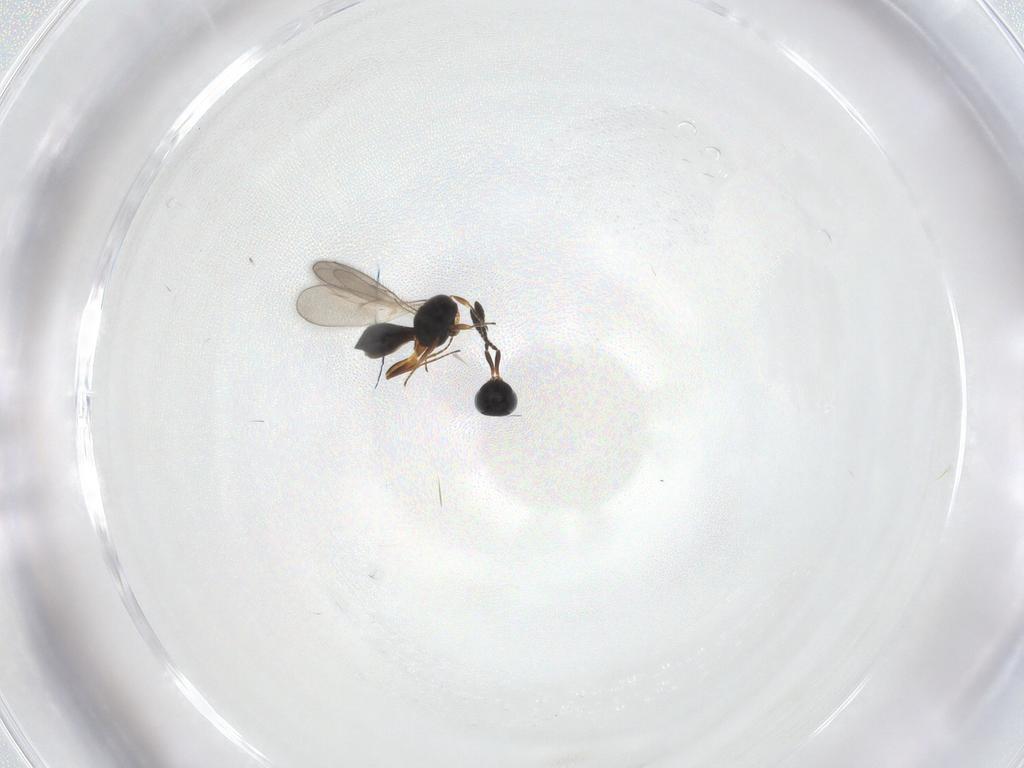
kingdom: Animalia
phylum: Arthropoda
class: Insecta
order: Hymenoptera
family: Scelionidae
